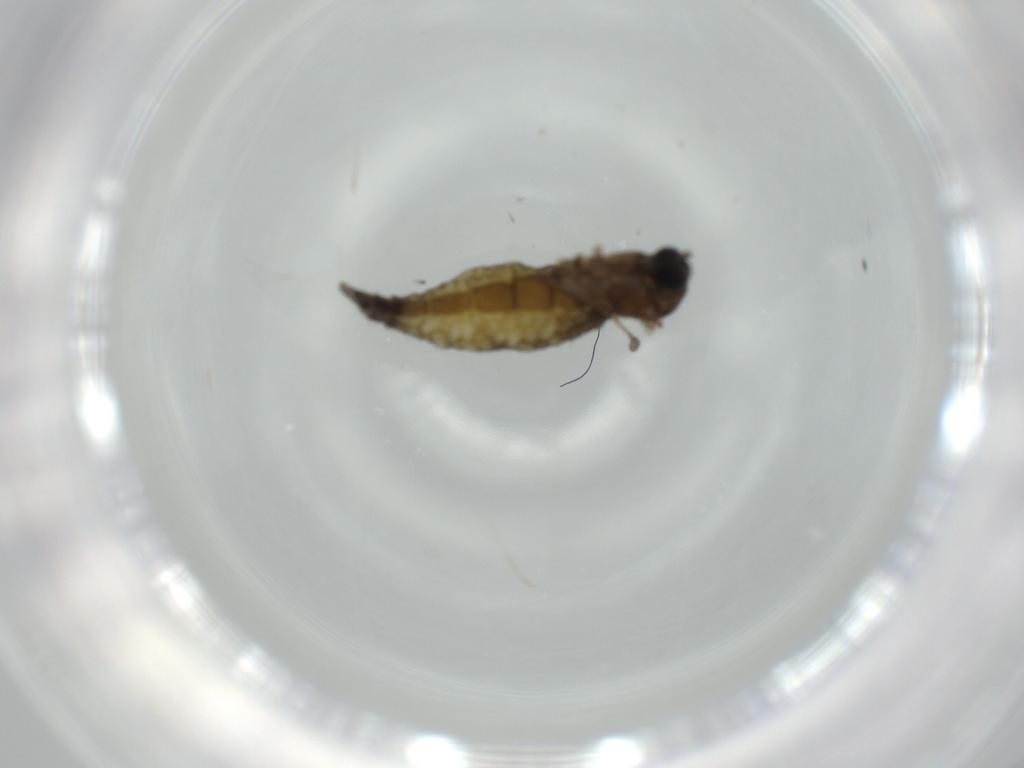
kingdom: Animalia
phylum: Arthropoda
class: Insecta
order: Diptera
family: Sciaridae
